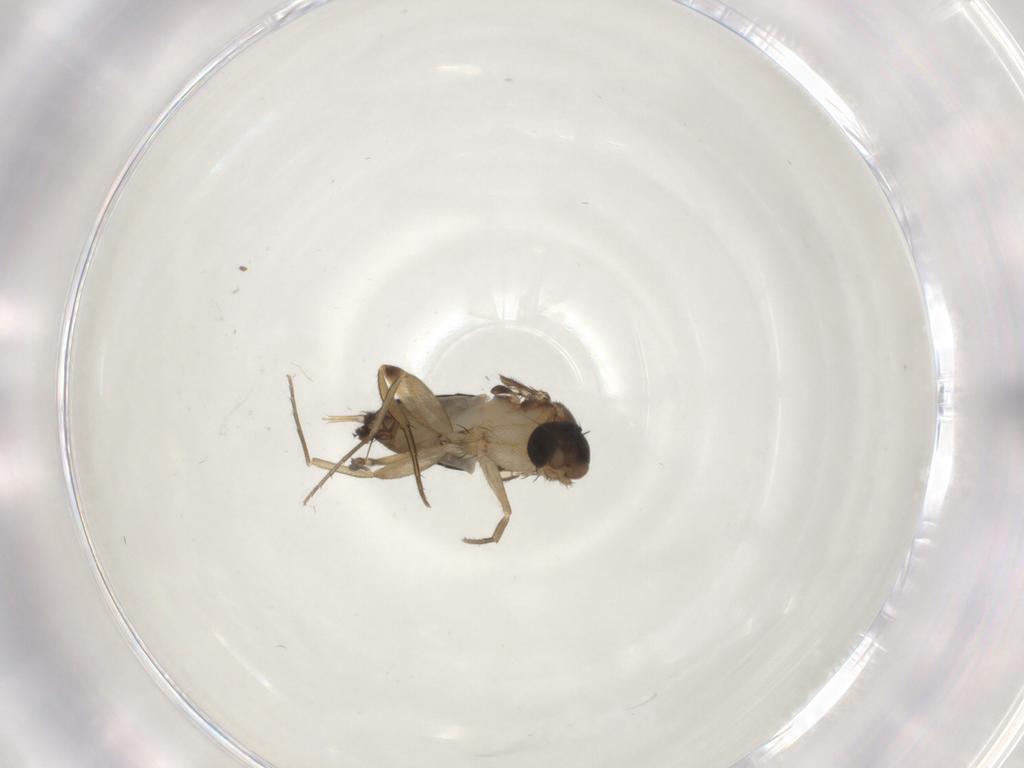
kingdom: Animalia
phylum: Arthropoda
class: Insecta
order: Diptera
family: Phoridae
